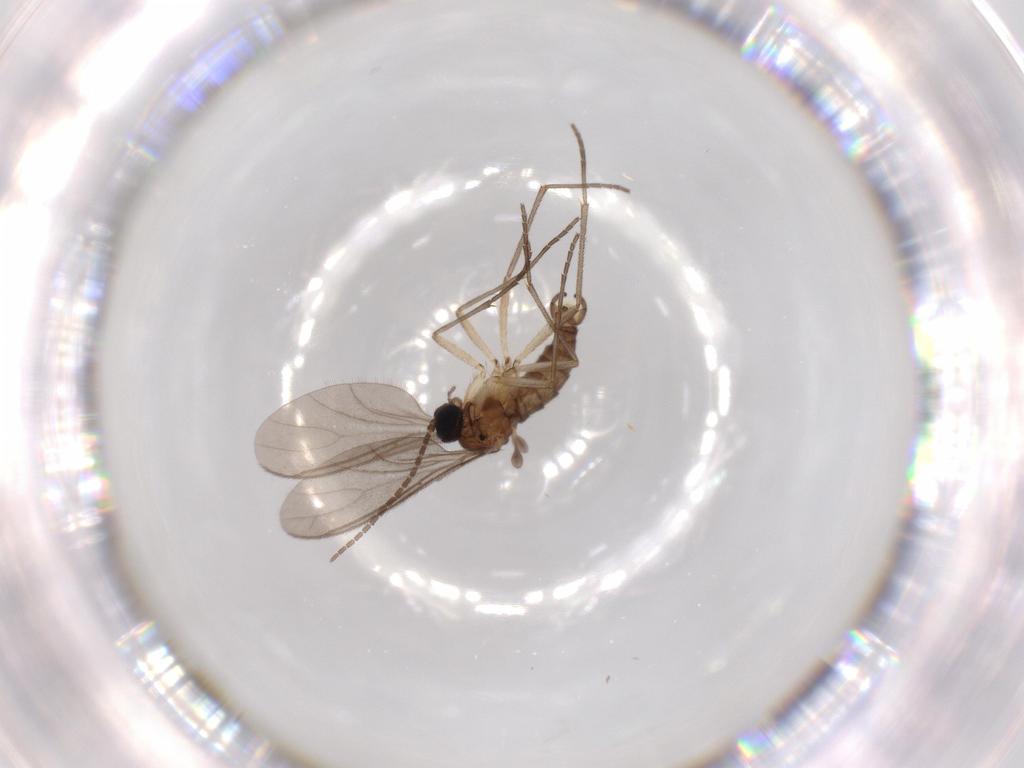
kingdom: Animalia
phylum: Arthropoda
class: Insecta
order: Diptera
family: Sciaridae
